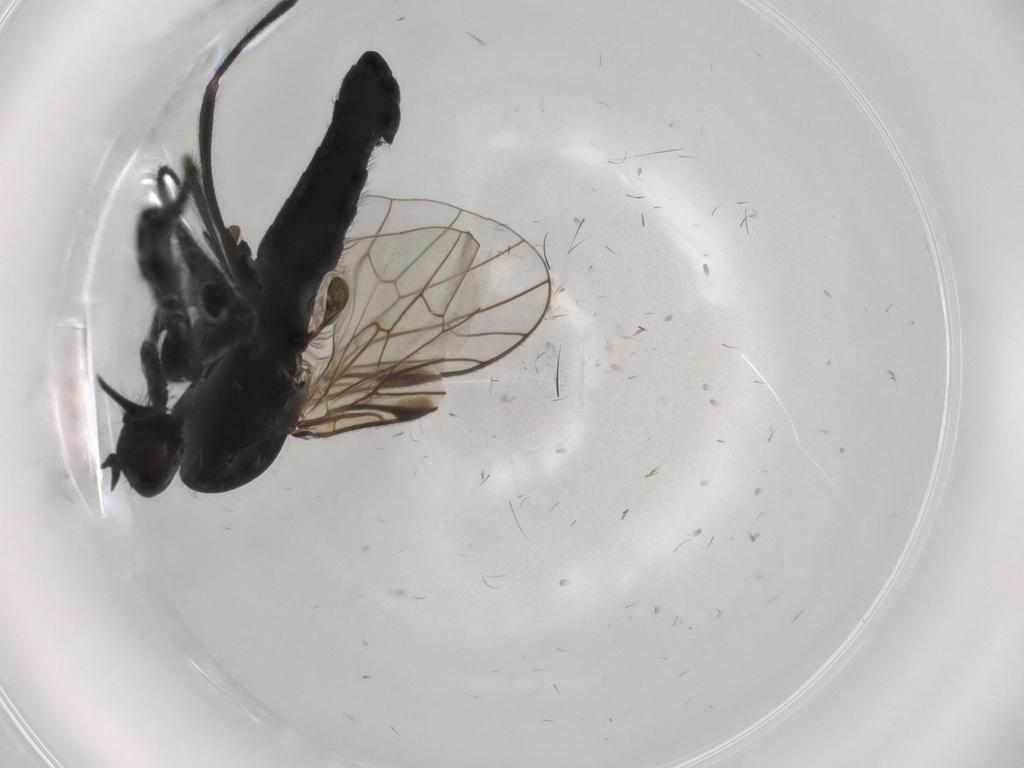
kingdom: Animalia
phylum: Arthropoda
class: Insecta
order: Diptera
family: Empididae
